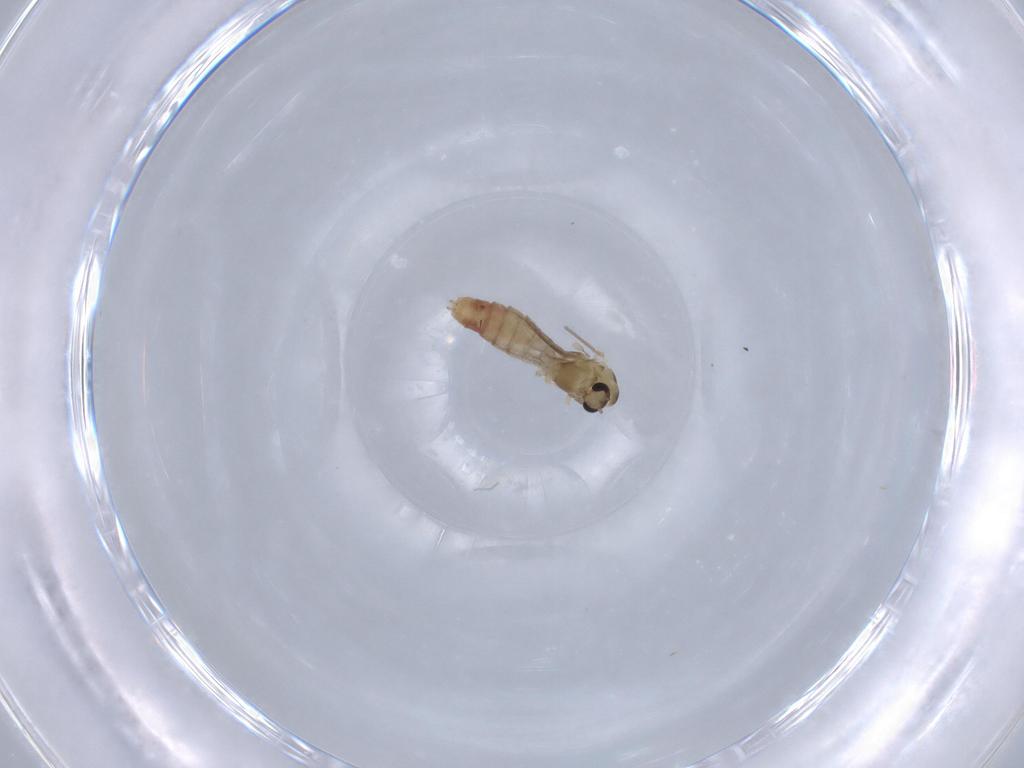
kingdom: Animalia
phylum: Arthropoda
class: Insecta
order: Diptera
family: Chironomidae
